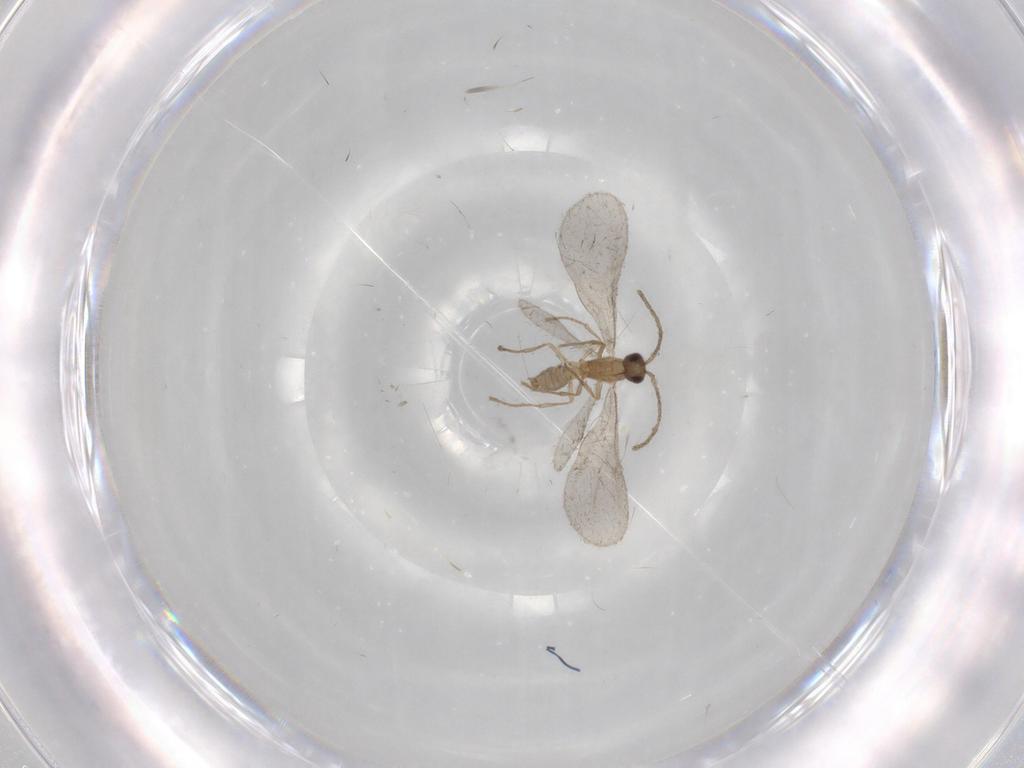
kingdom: Animalia
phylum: Arthropoda
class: Insecta
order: Hymenoptera
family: Formicidae
